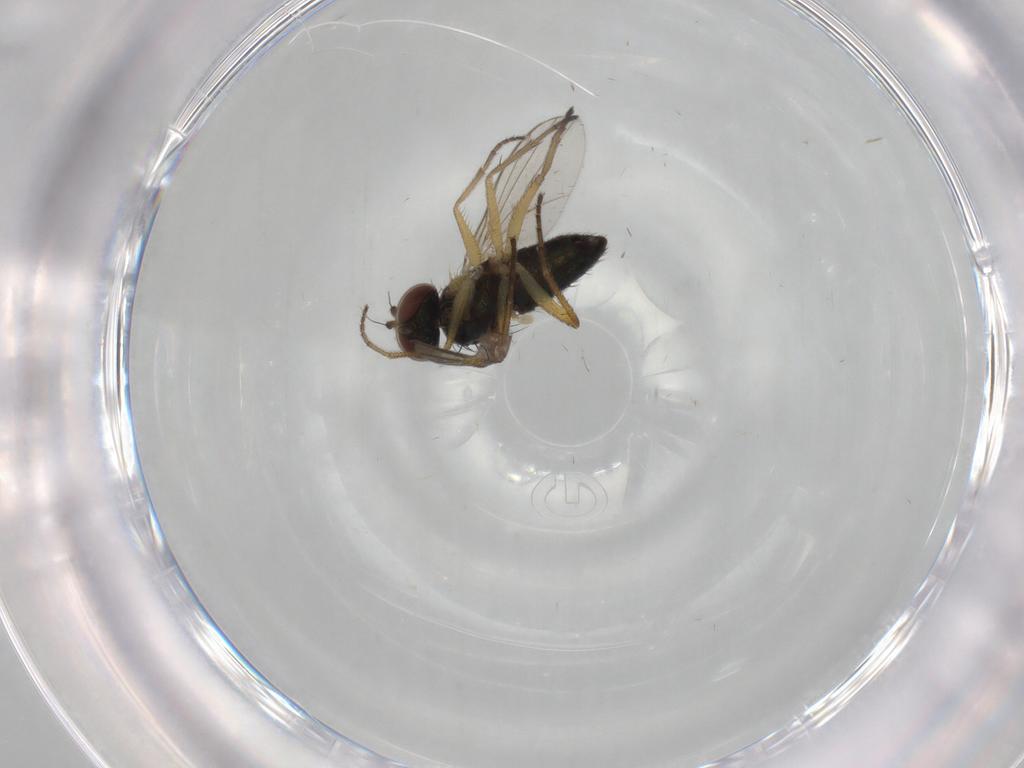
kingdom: Animalia
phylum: Arthropoda
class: Insecta
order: Diptera
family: Dolichopodidae
